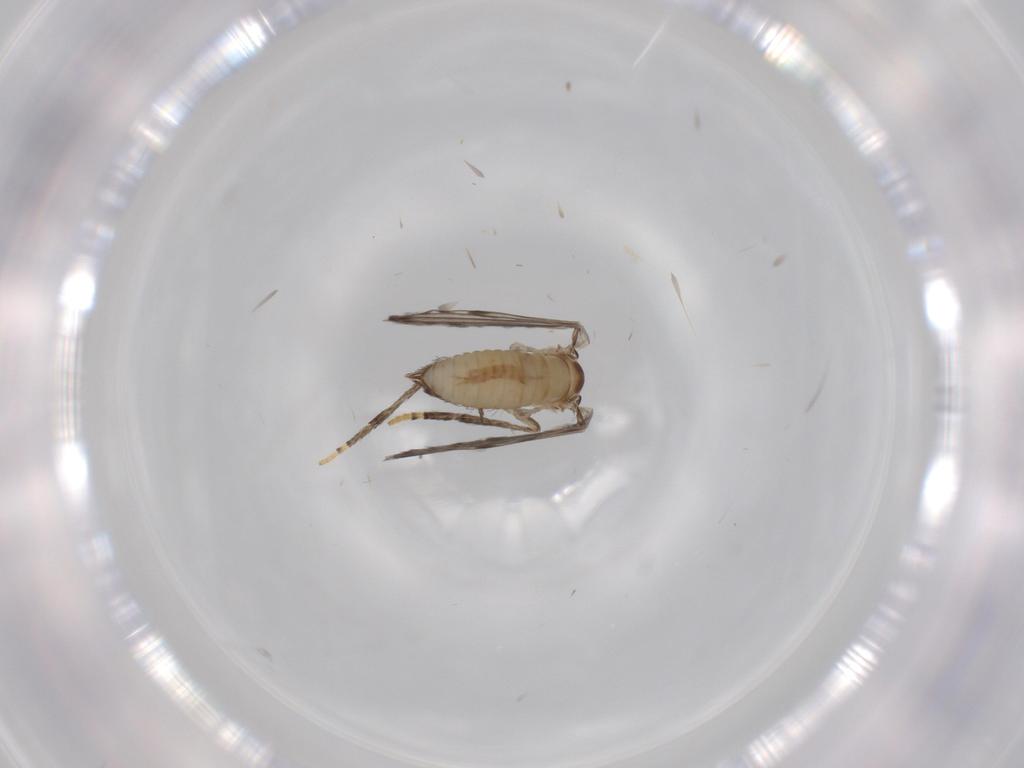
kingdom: Animalia
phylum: Arthropoda
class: Insecta
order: Diptera
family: Psychodidae
